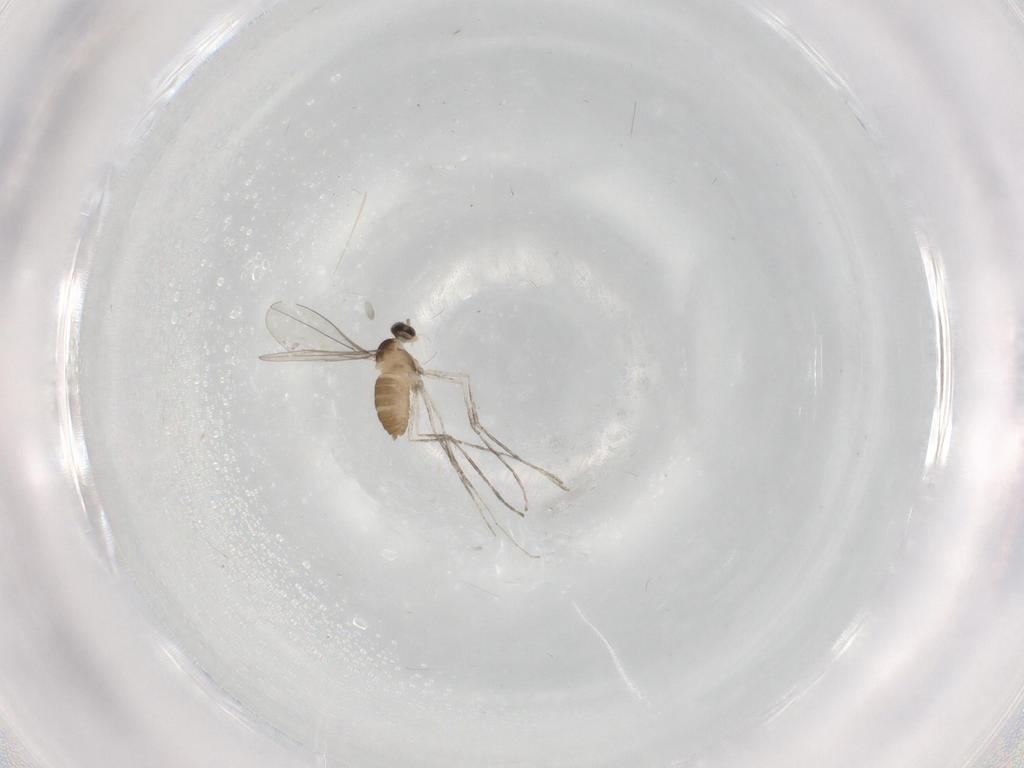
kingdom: Animalia
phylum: Arthropoda
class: Insecta
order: Diptera
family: Cecidomyiidae
